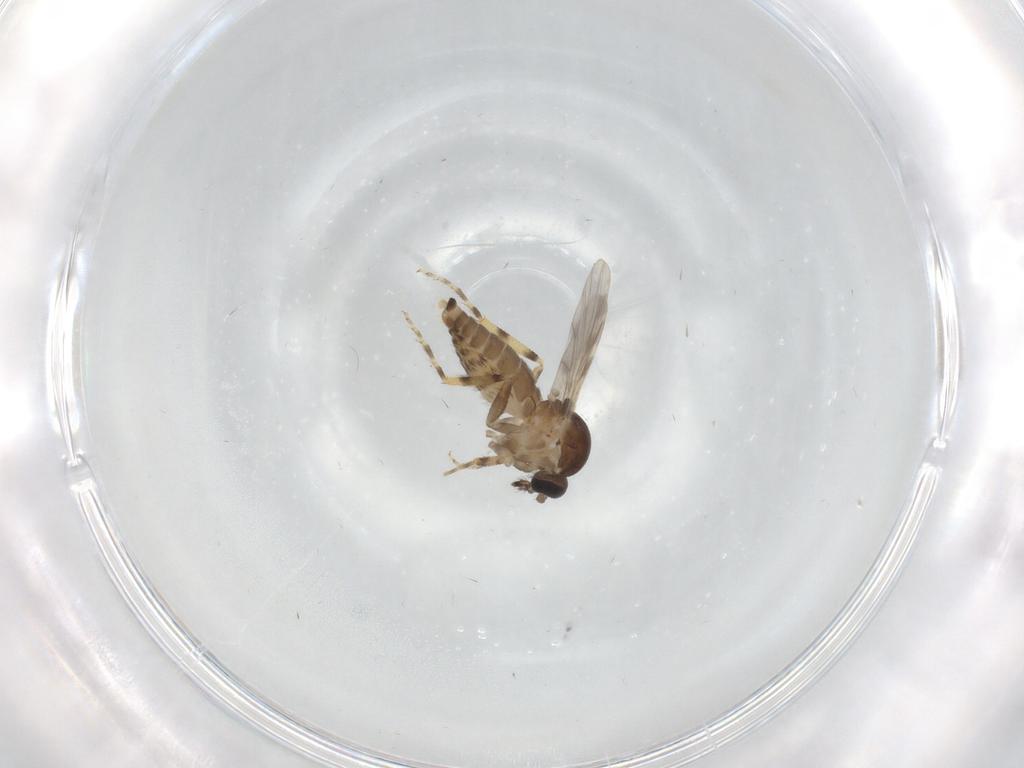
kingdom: Animalia
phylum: Arthropoda
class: Insecta
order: Diptera
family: Ceratopogonidae
